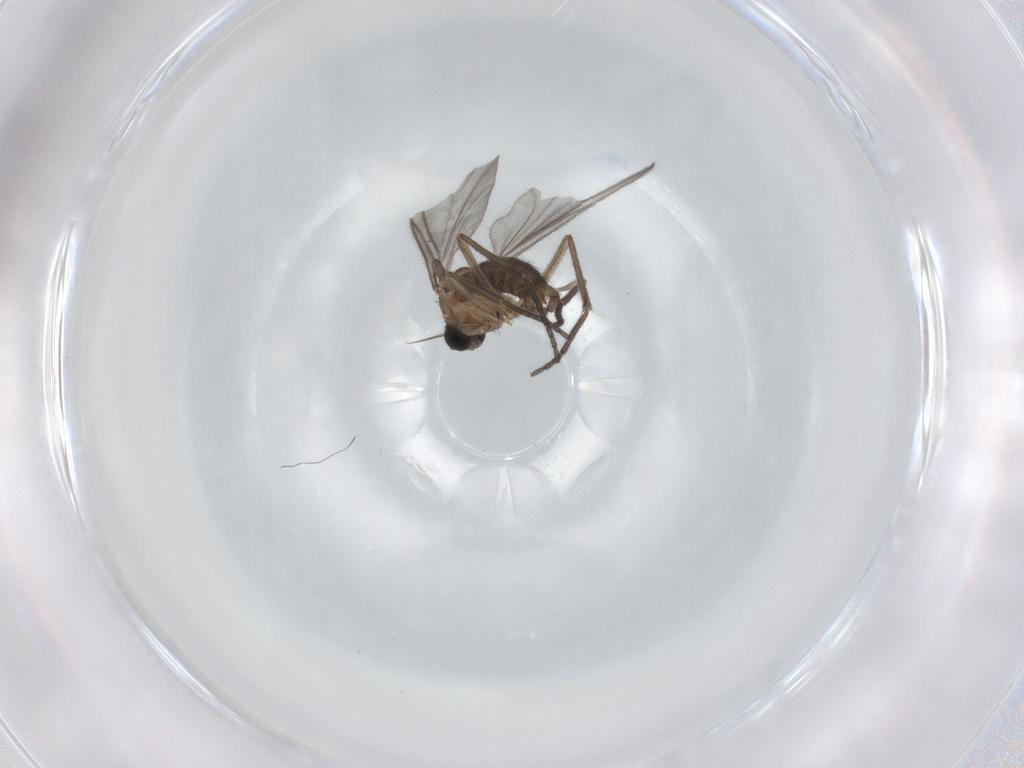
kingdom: Animalia
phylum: Arthropoda
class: Insecta
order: Diptera
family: Sciaridae
